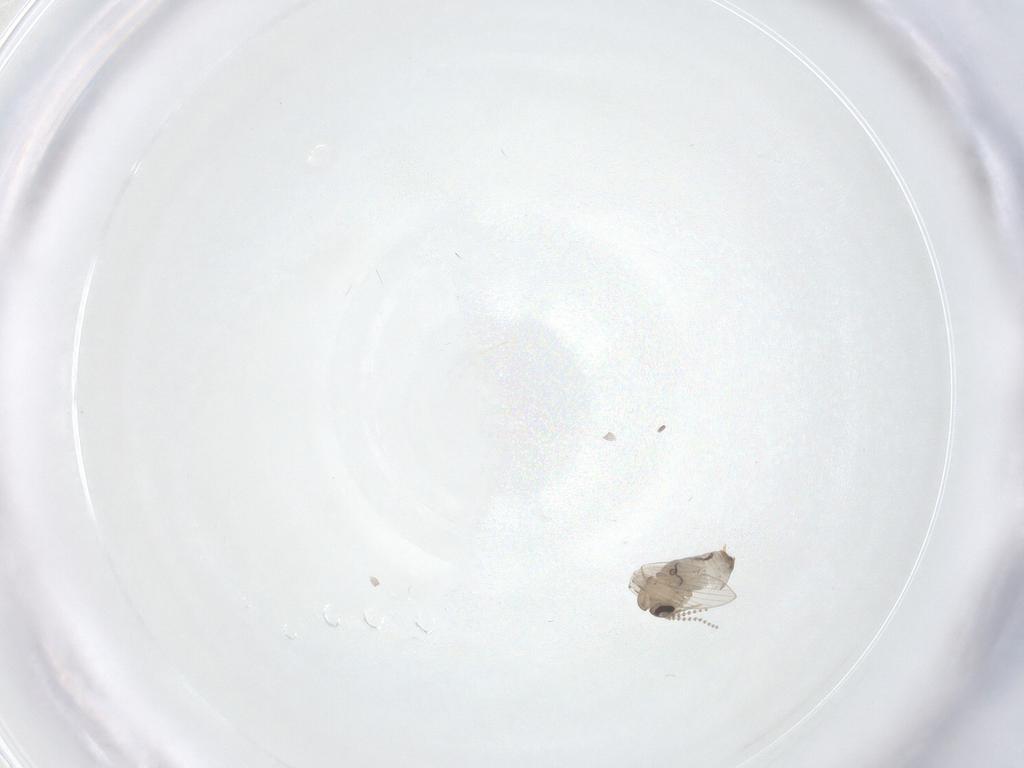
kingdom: Animalia
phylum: Arthropoda
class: Insecta
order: Diptera
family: Psychodidae
